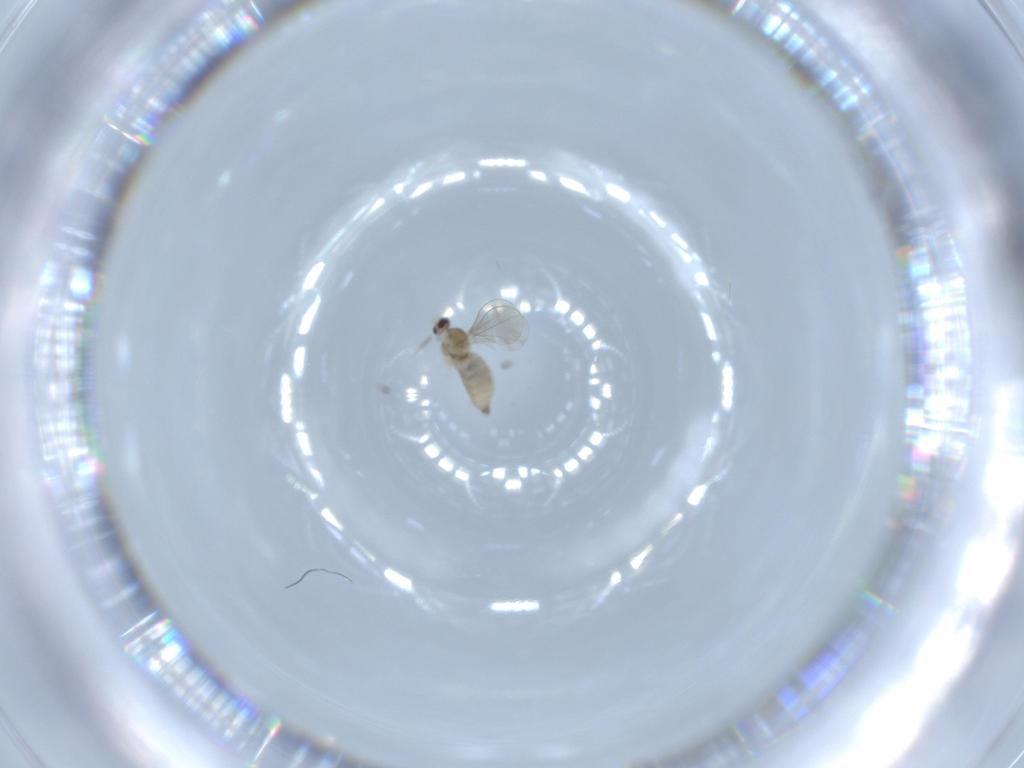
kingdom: Animalia
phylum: Arthropoda
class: Insecta
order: Diptera
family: Cecidomyiidae
